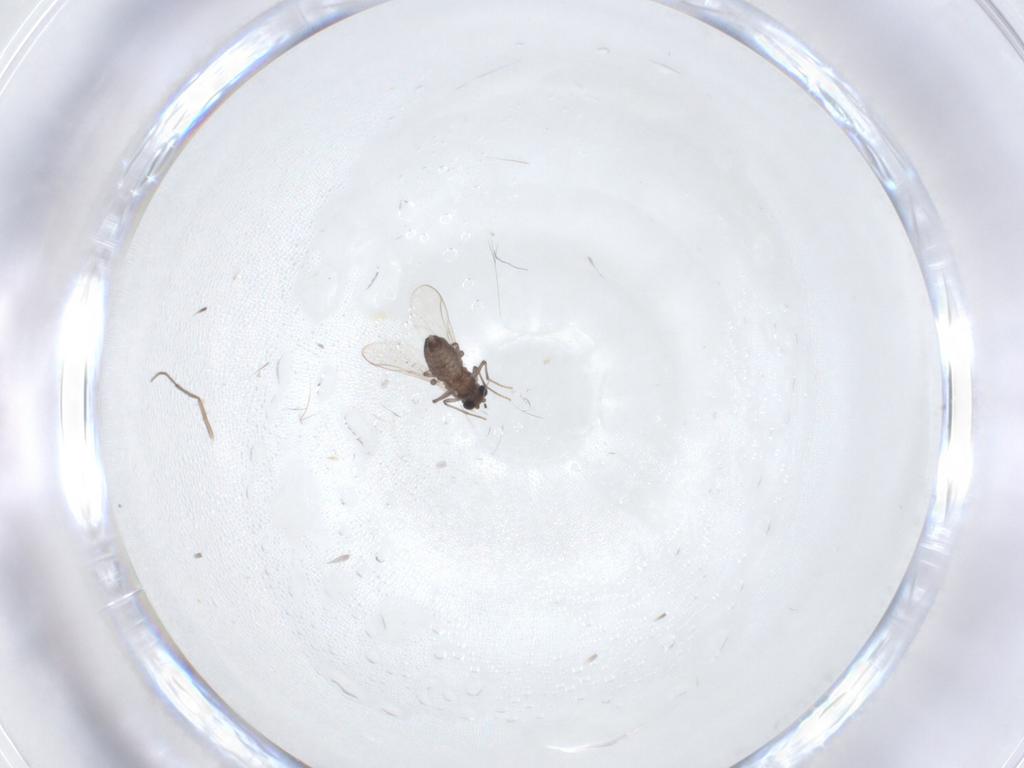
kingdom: Animalia
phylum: Arthropoda
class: Insecta
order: Diptera
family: Chironomidae
